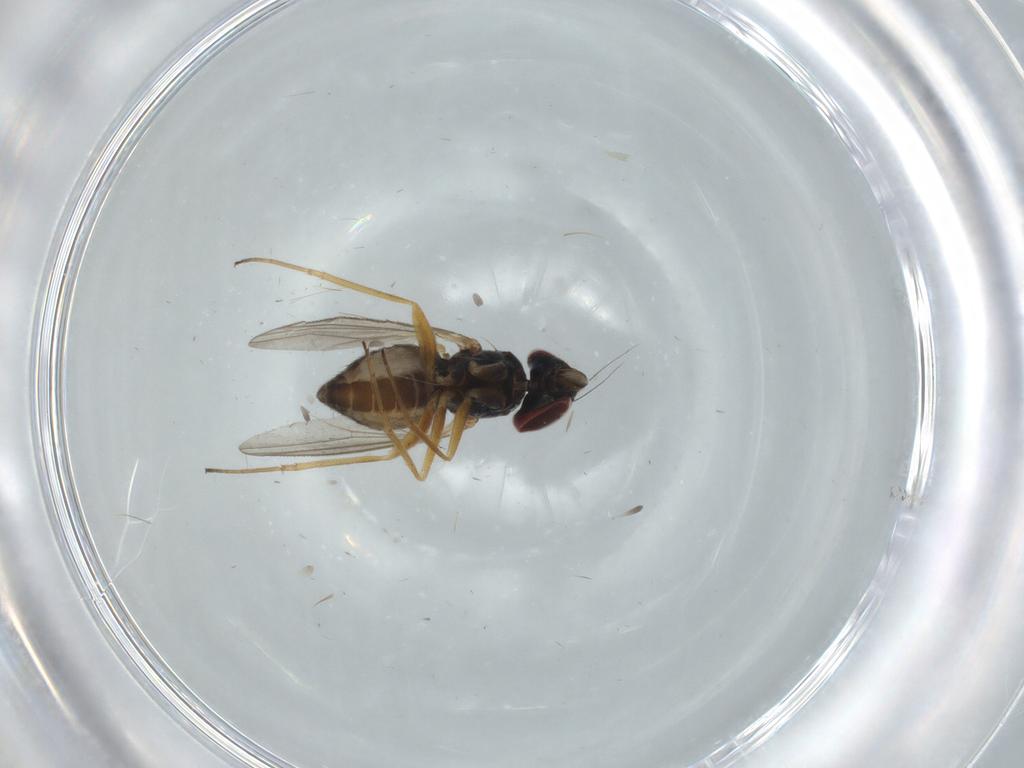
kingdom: Animalia
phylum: Arthropoda
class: Insecta
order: Diptera
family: Dolichopodidae
